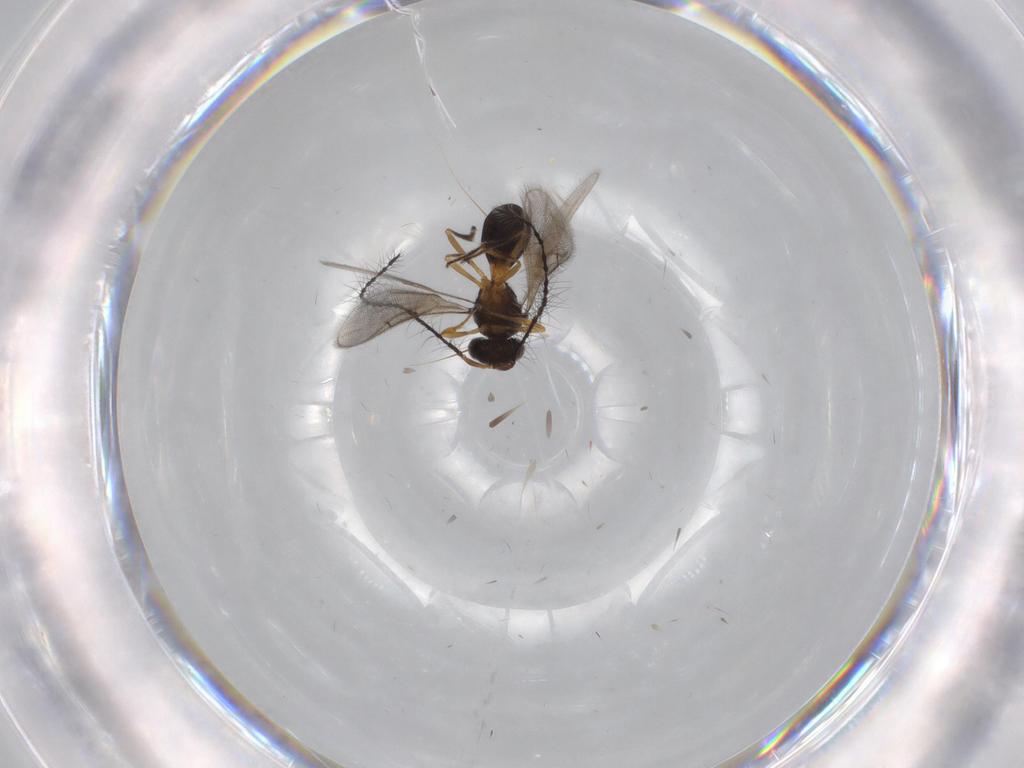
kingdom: Animalia
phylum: Arthropoda
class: Insecta
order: Hymenoptera
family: Scelionidae
